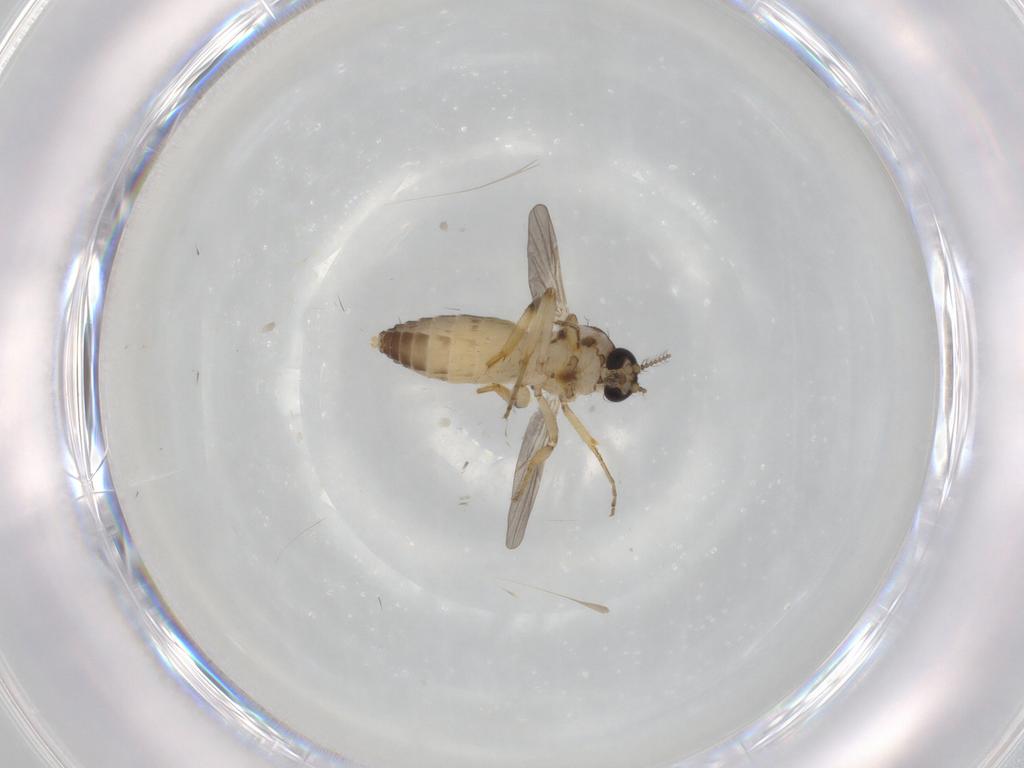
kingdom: Animalia
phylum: Arthropoda
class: Insecta
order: Diptera
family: Ceratopogonidae
